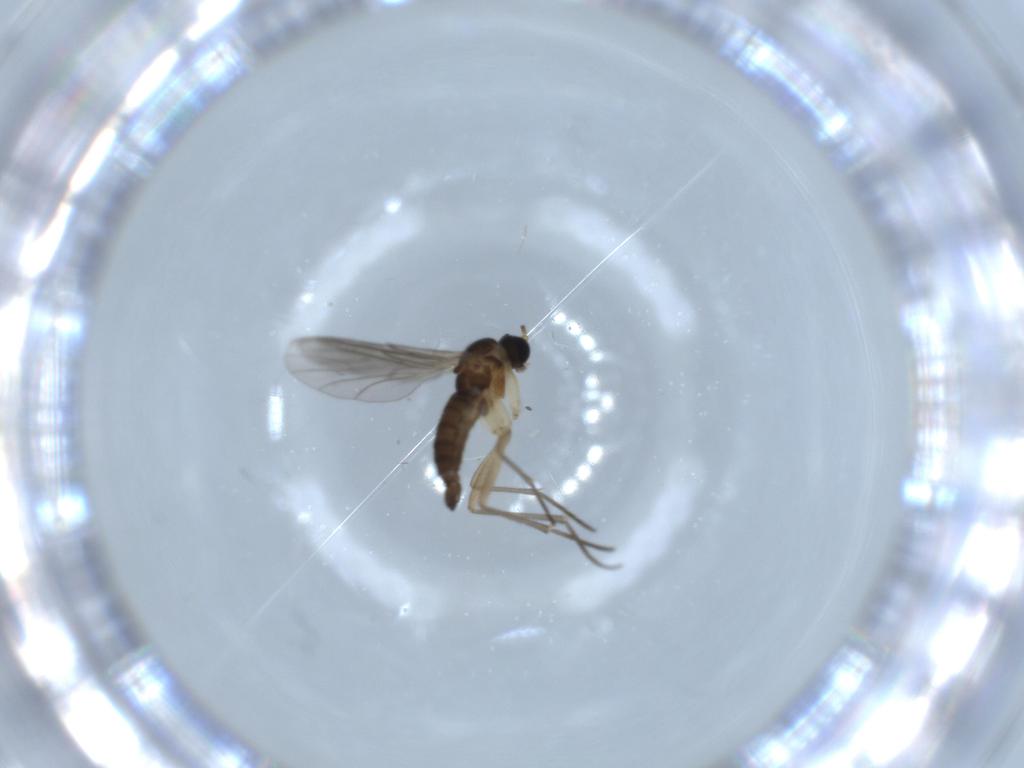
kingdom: Animalia
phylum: Arthropoda
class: Insecta
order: Diptera
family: Sciaridae
